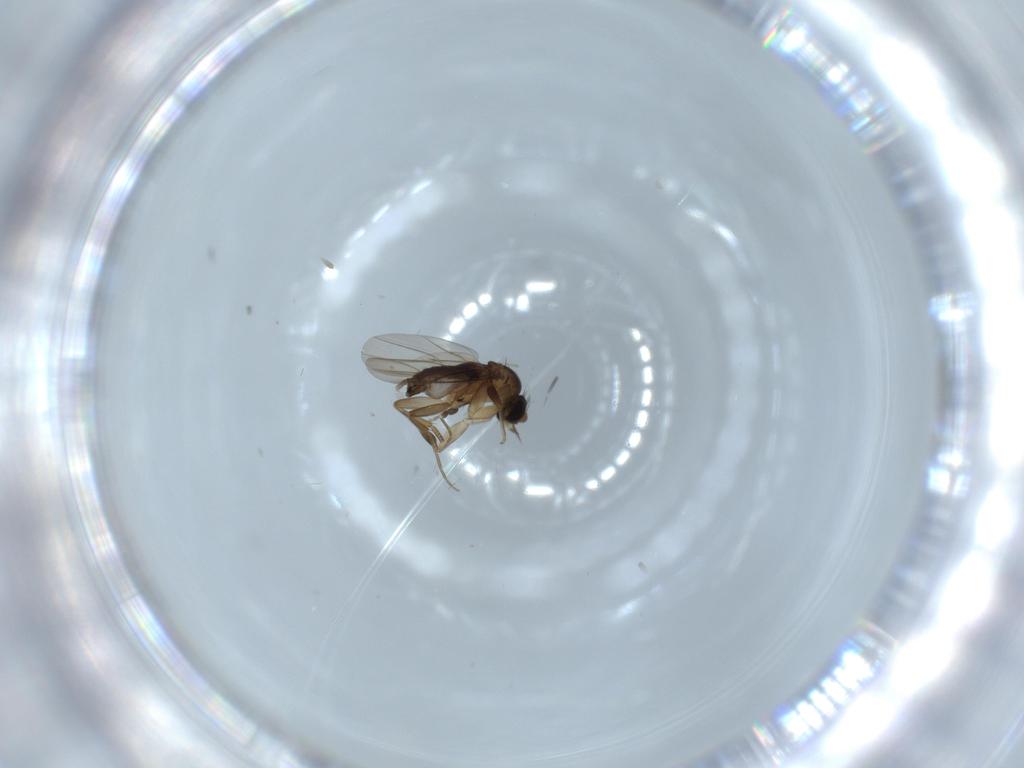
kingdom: Animalia
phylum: Arthropoda
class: Insecta
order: Diptera
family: Phoridae
